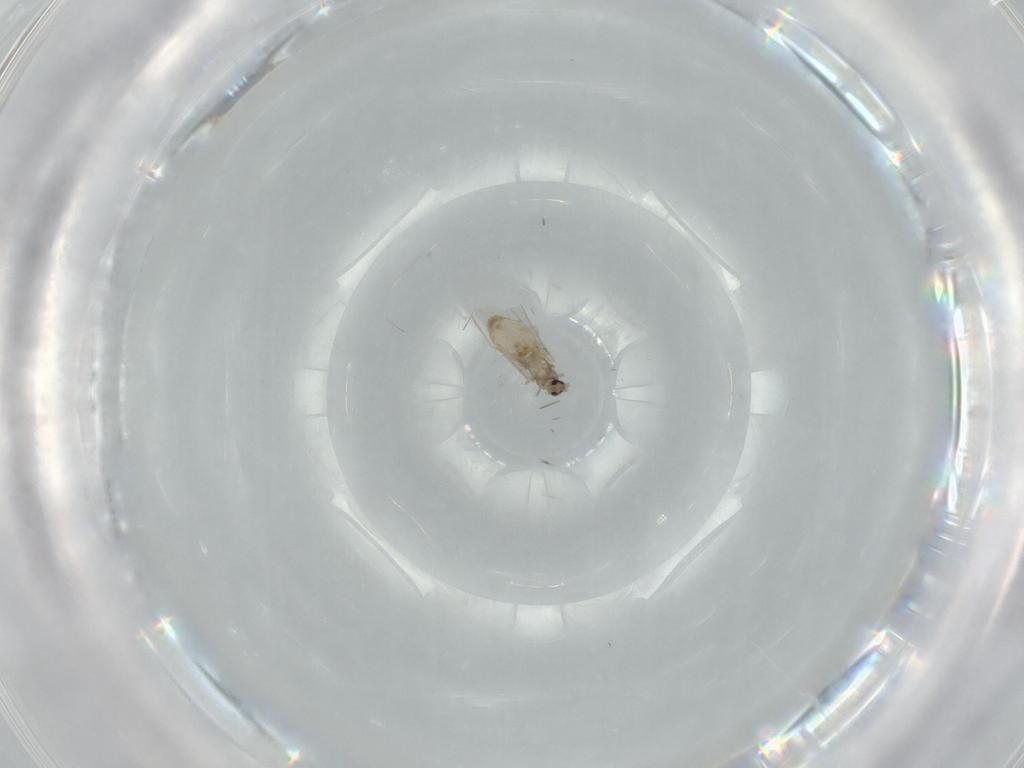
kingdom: Animalia
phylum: Arthropoda
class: Insecta
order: Diptera
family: Cecidomyiidae
